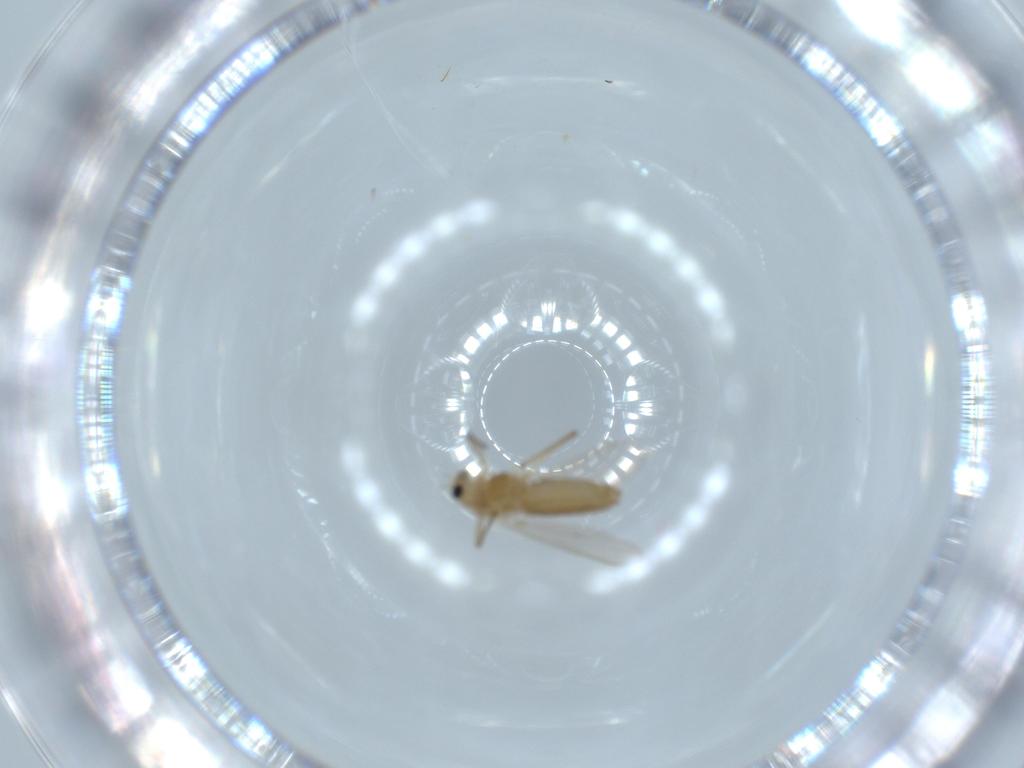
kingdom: Animalia
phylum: Arthropoda
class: Insecta
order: Diptera
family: Chironomidae
